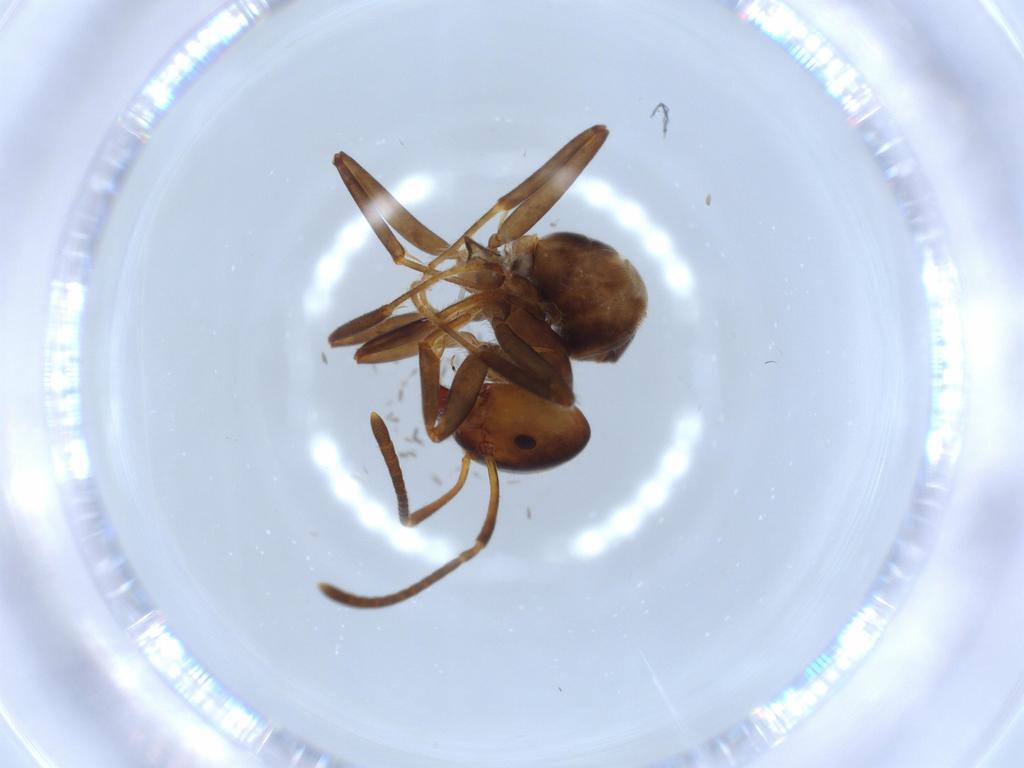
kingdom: Animalia
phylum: Arthropoda
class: Insecta
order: Hymenoptera
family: Formicidae
